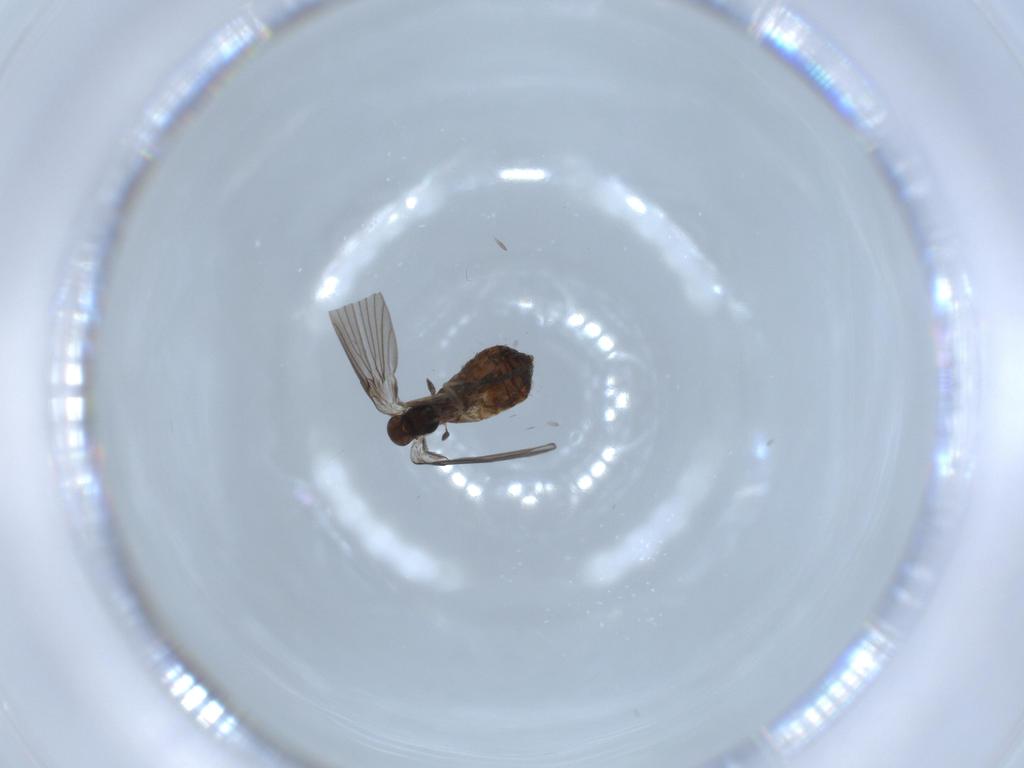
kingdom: Animalia
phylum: Arthropoda
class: Insecta
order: Diptera
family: Psychodidae
